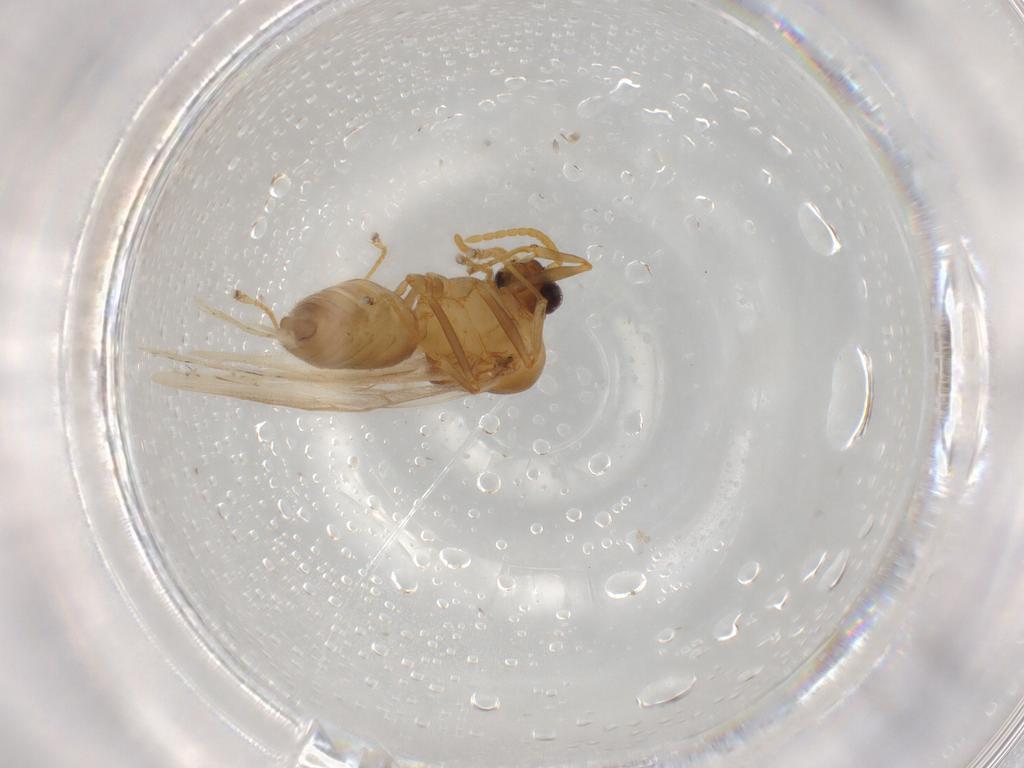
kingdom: Animalia
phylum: Arthropoda
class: Insecta
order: Hymenoptera
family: Formicidae
